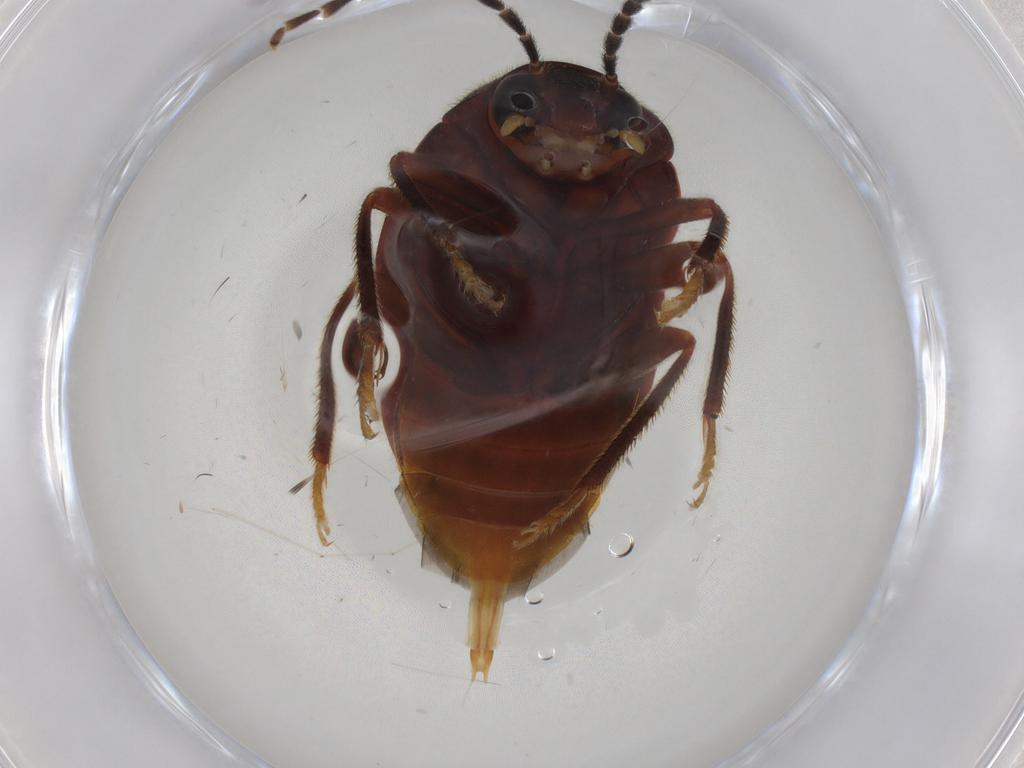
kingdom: Animalia
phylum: Arthropoda
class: Insecta
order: Coleoptera
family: Ptilodactylidae
